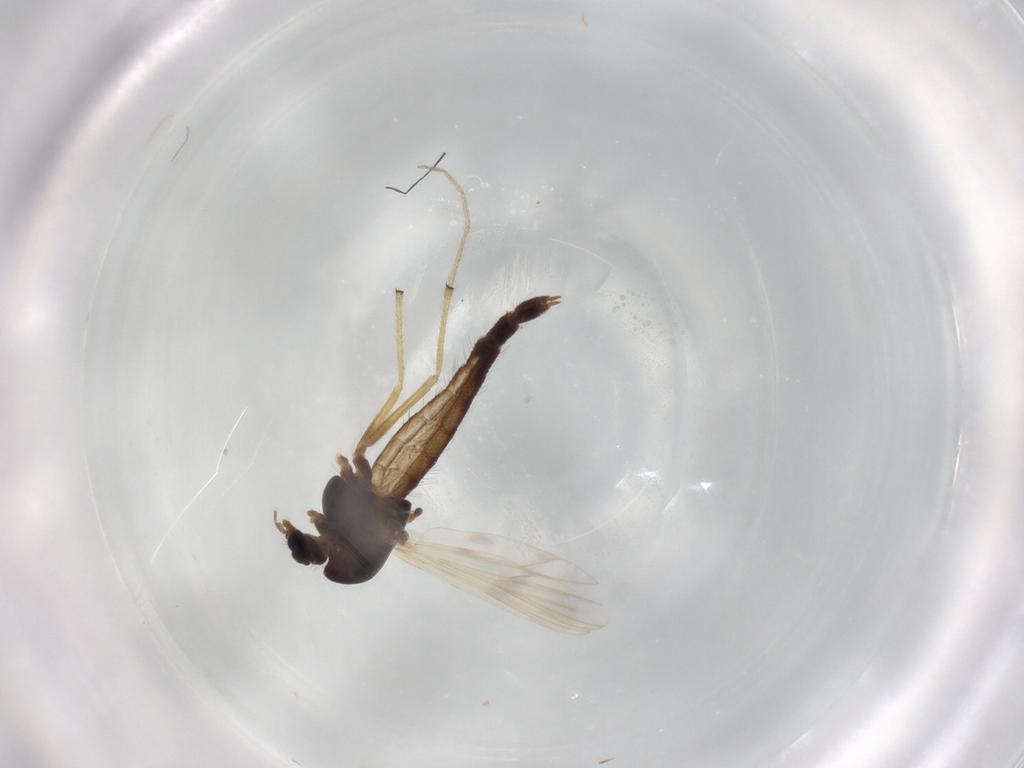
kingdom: Animalia
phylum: Arthropoda
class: Insecta
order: Diptera
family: Chironomidae
